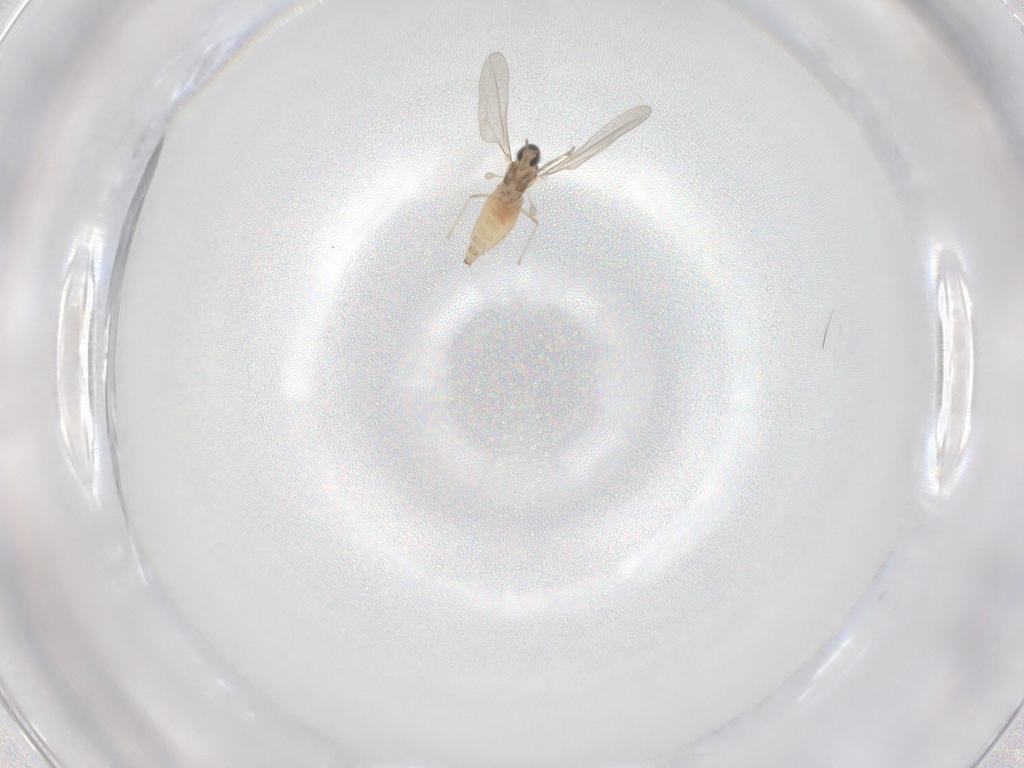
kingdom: Animalia
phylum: Arthropoda
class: Insecta
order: Diptera
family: Cecidomyiidae
